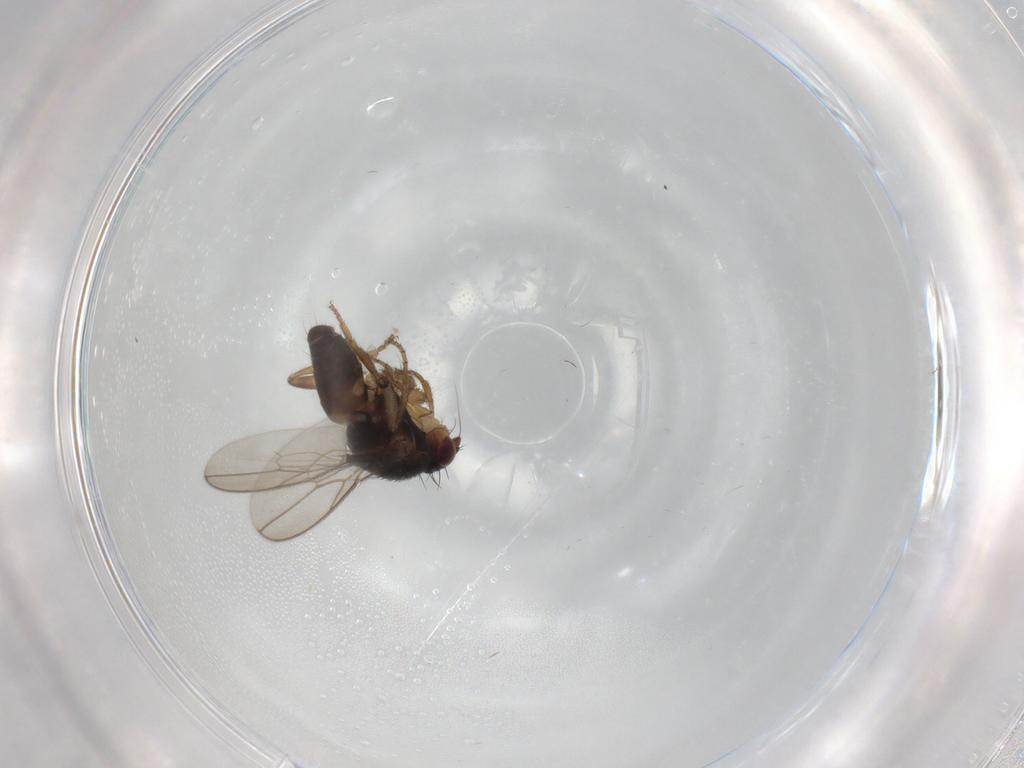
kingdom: Animalia
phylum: Arthropoda
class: Insecta
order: Diptera
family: Sphaeroceridae
